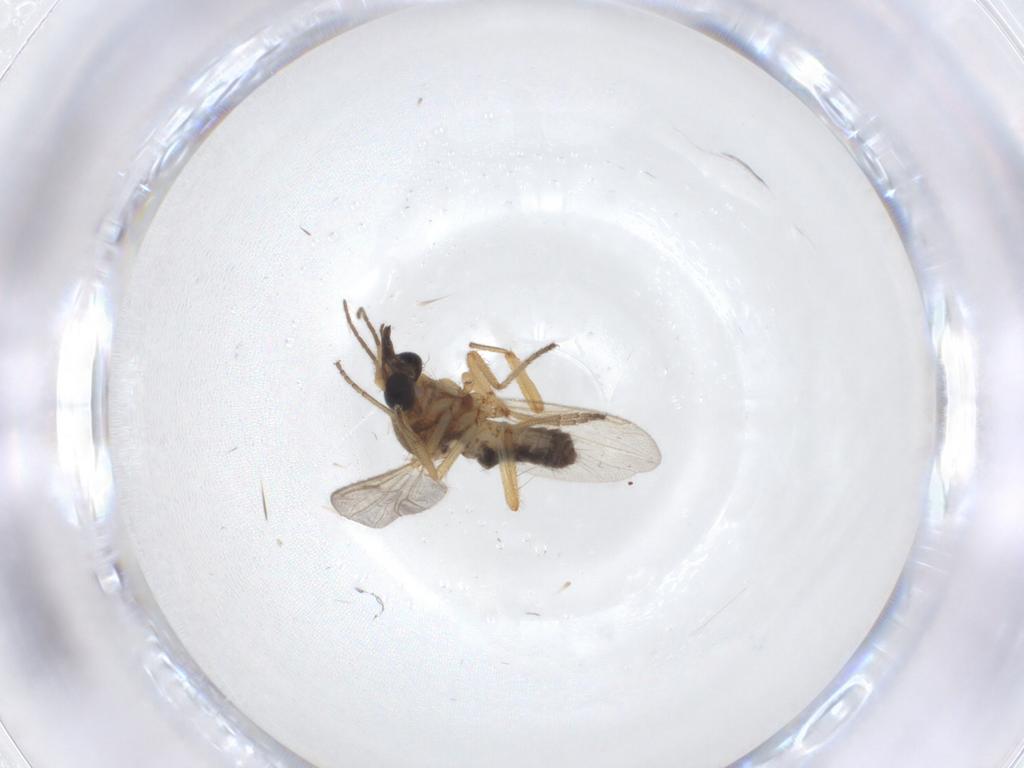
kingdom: Animalia
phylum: Arthropoda
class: Insecta
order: Diptera
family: Ceratopogonidae
